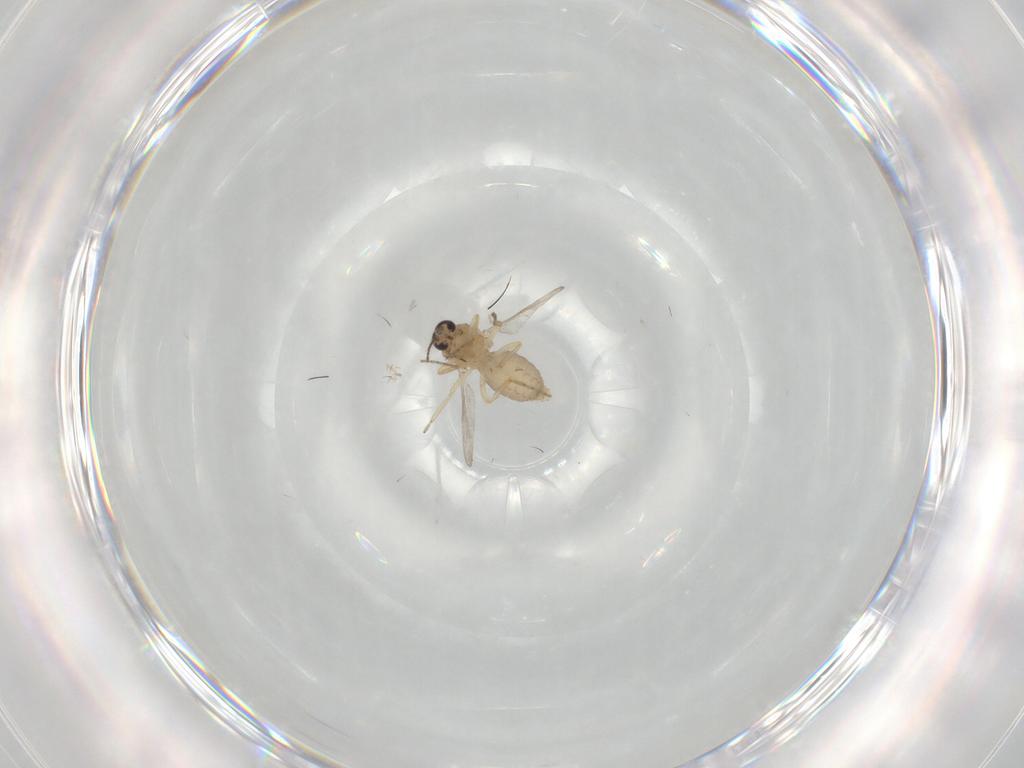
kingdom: Animalia
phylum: Arthropoda
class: Insecta
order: Diptera
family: Ceratopogonidae
